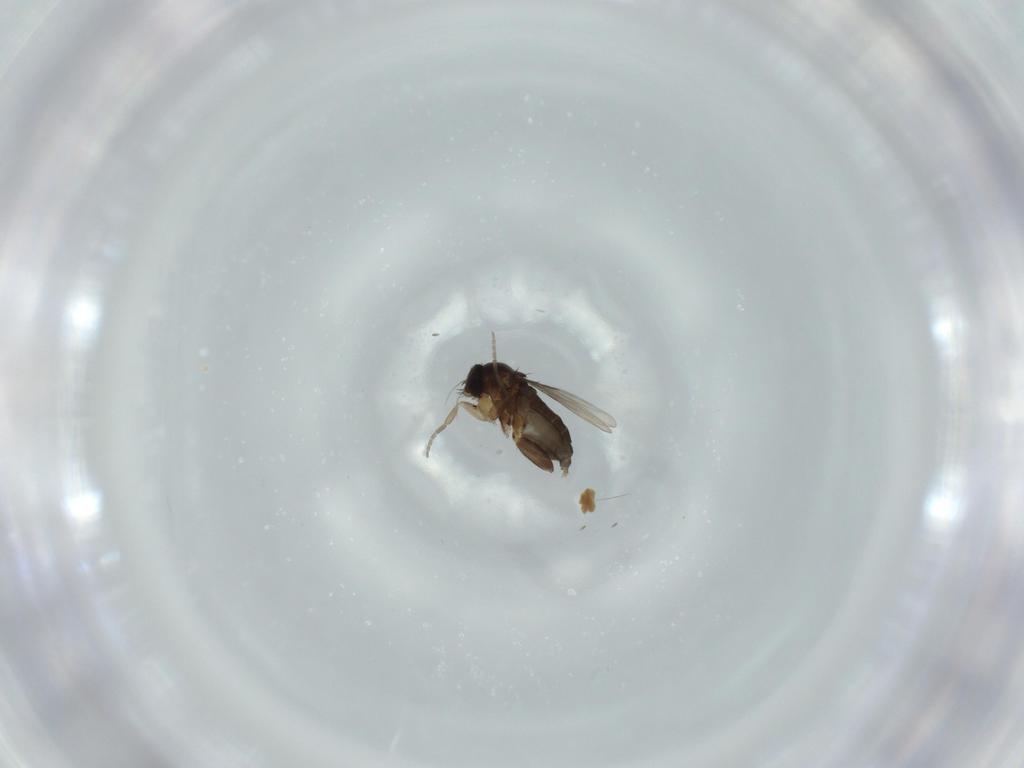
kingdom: Animalia
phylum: Arthropoda
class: Insecta
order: Diptera
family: Phoridae
